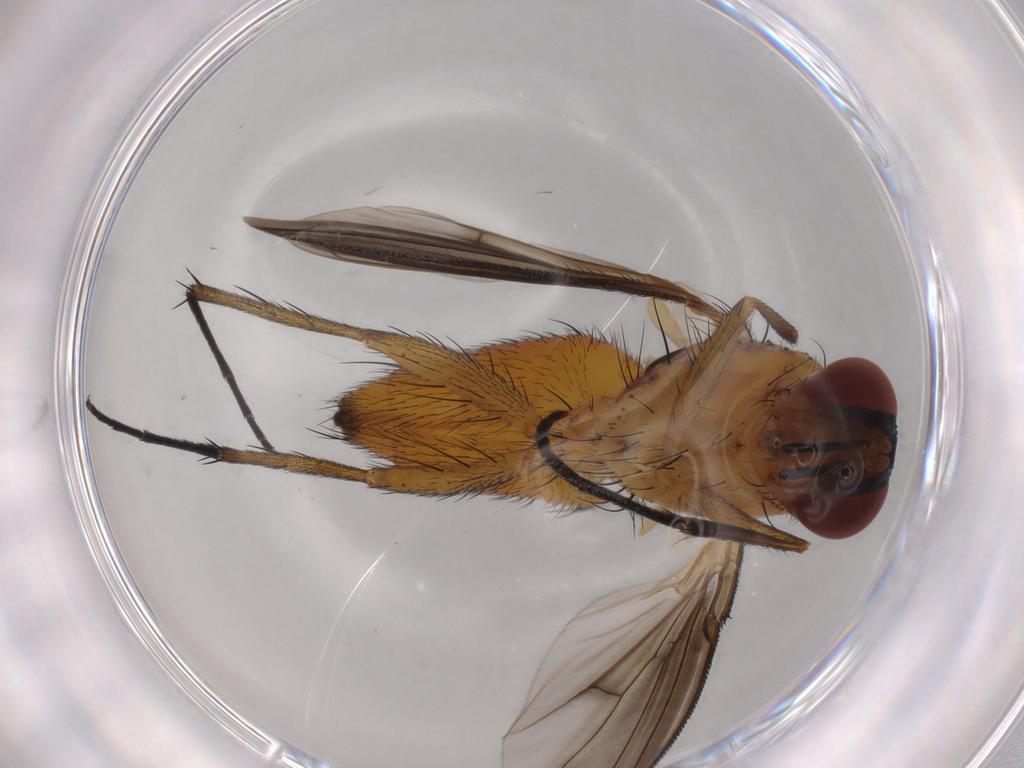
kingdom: Animalia
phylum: Arthropoda
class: Insecta
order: Diptera
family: Tachinidae
